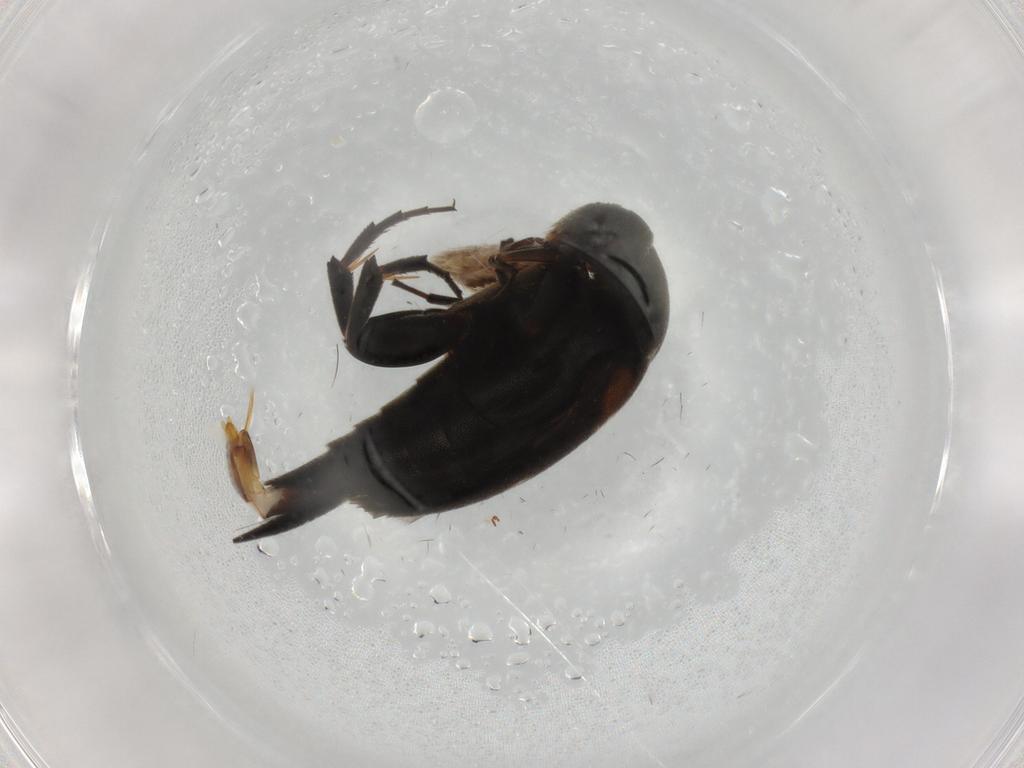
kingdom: Animalia
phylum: Arthropoda
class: Insecta
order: Coleoptera
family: Mordellidae
